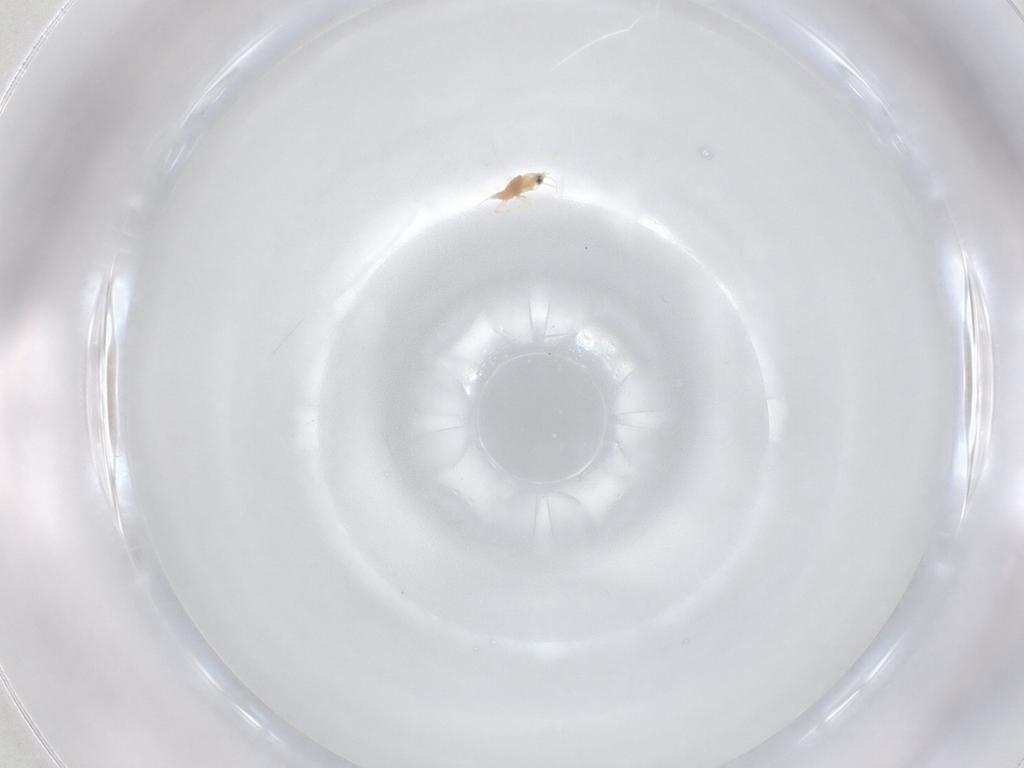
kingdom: Animalia
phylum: Arthropoda
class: Insecta
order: Hemiptera
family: Diaspididae
